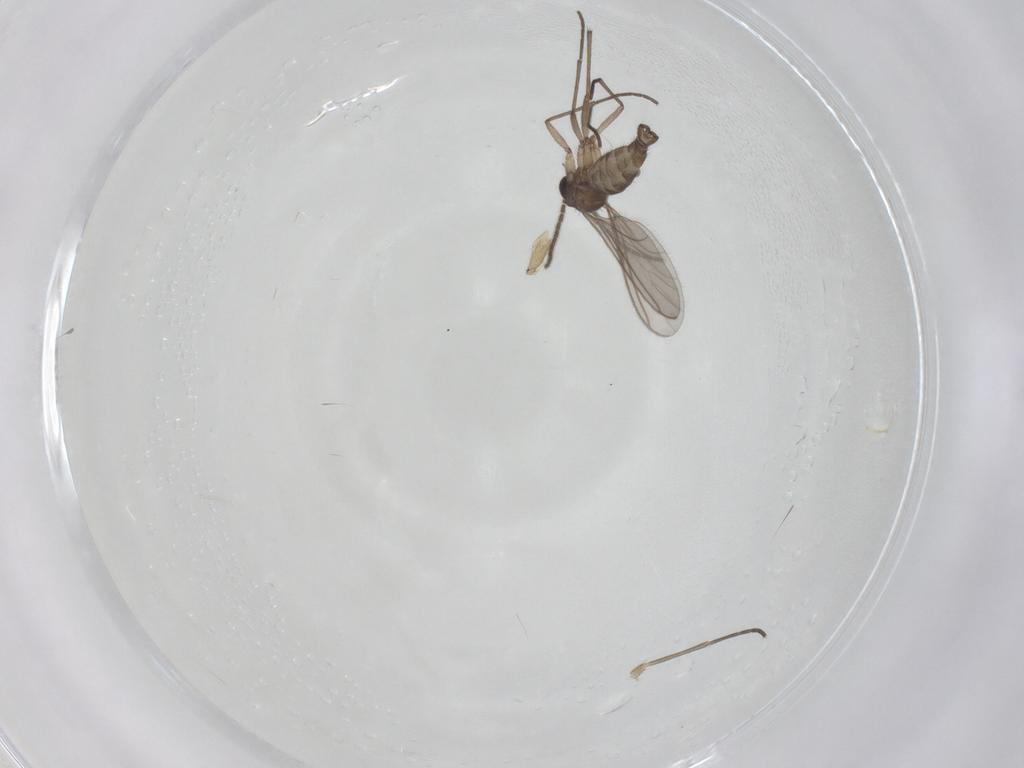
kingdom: Animalia
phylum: Arthropoda
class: Insecta
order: Diptera
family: Sciaridae
